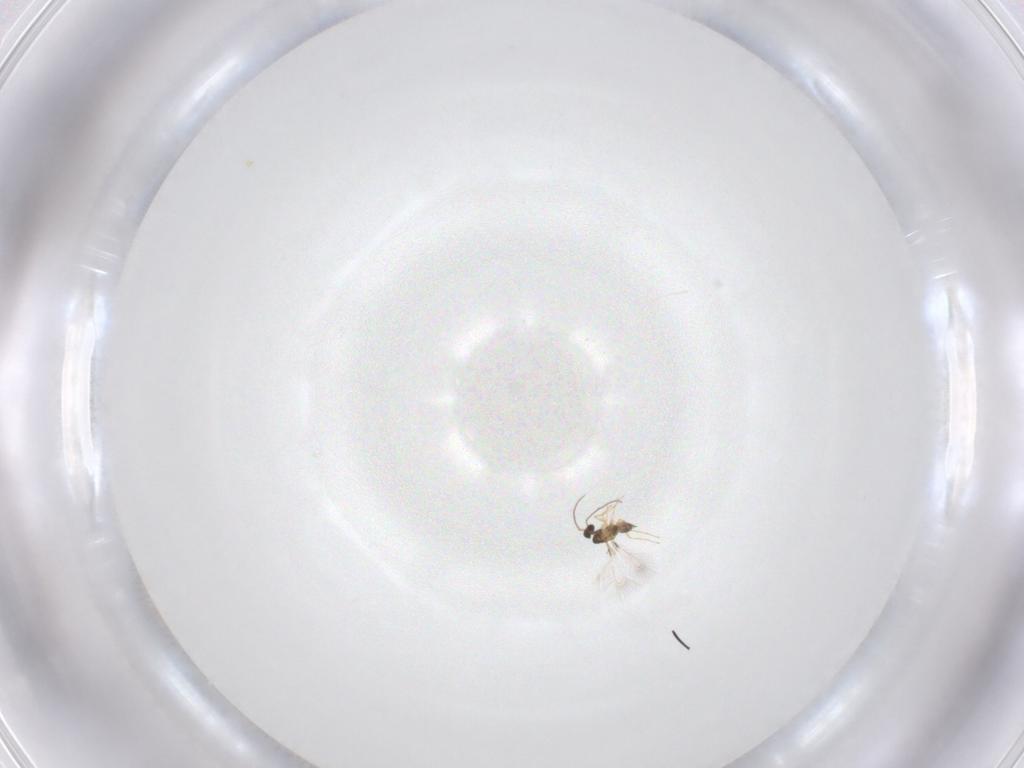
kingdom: Animalia
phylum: Arthropoda
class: Insecta
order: Hymenoptera
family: Mymaridae
